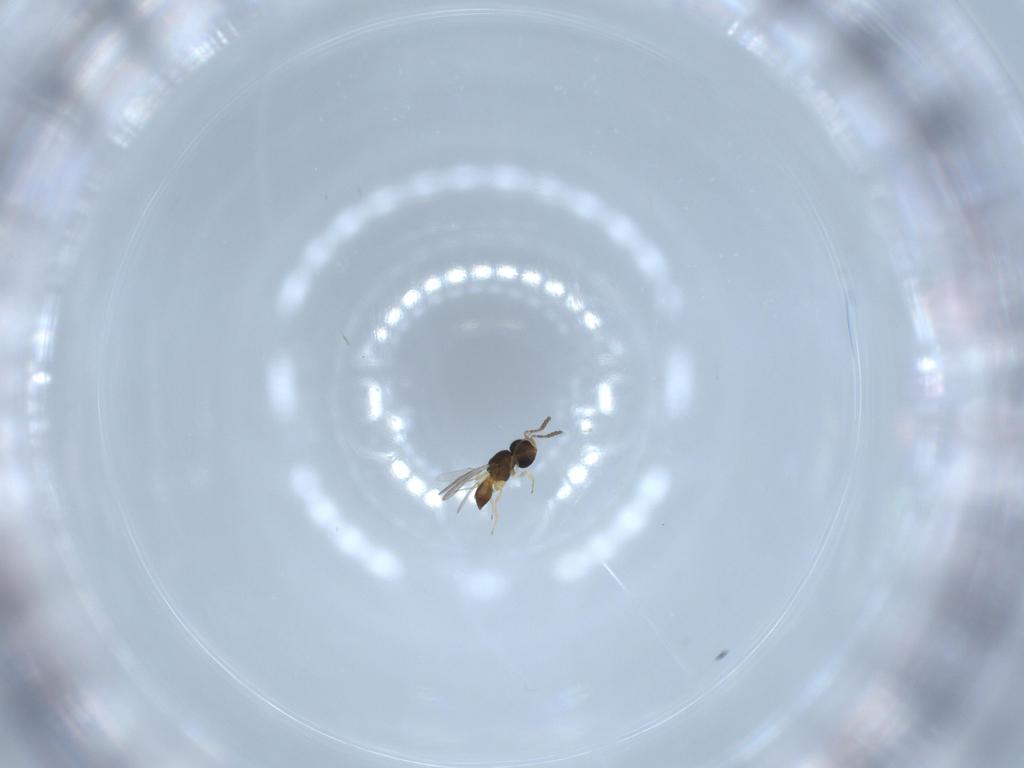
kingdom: Animalia
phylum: Arthropoda
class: Insecta
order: Hymenoptera
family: Scelionidae
